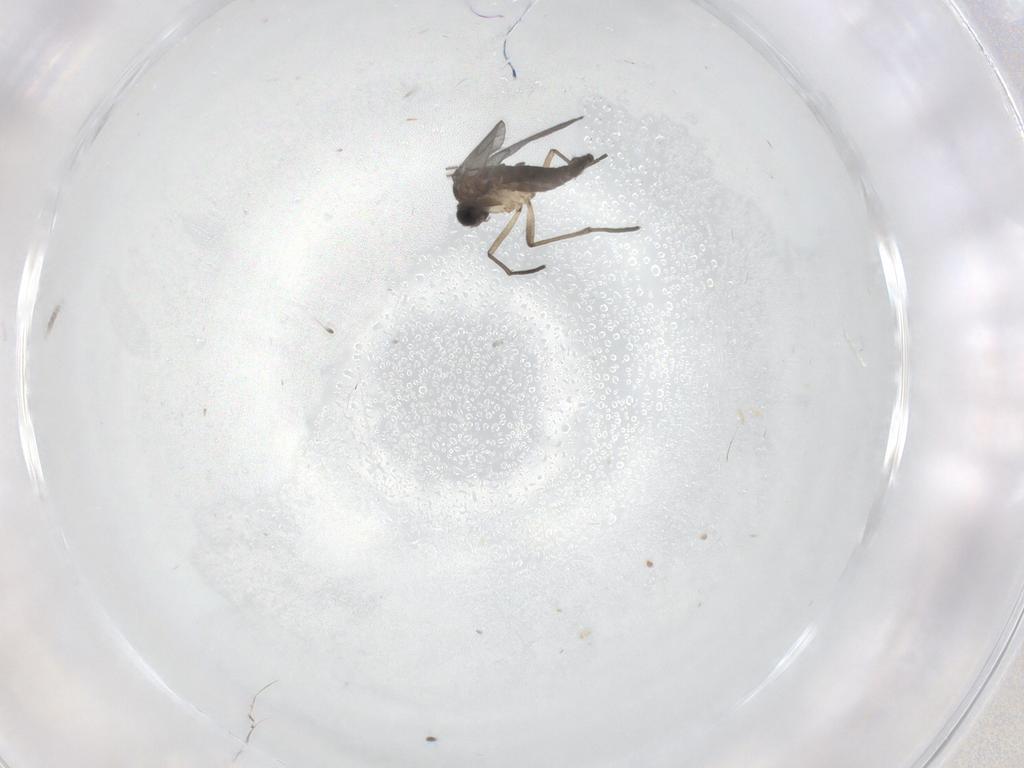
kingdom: Animalia
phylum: Arthropoda
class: Insecta
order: Diptera
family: Sciaridae
